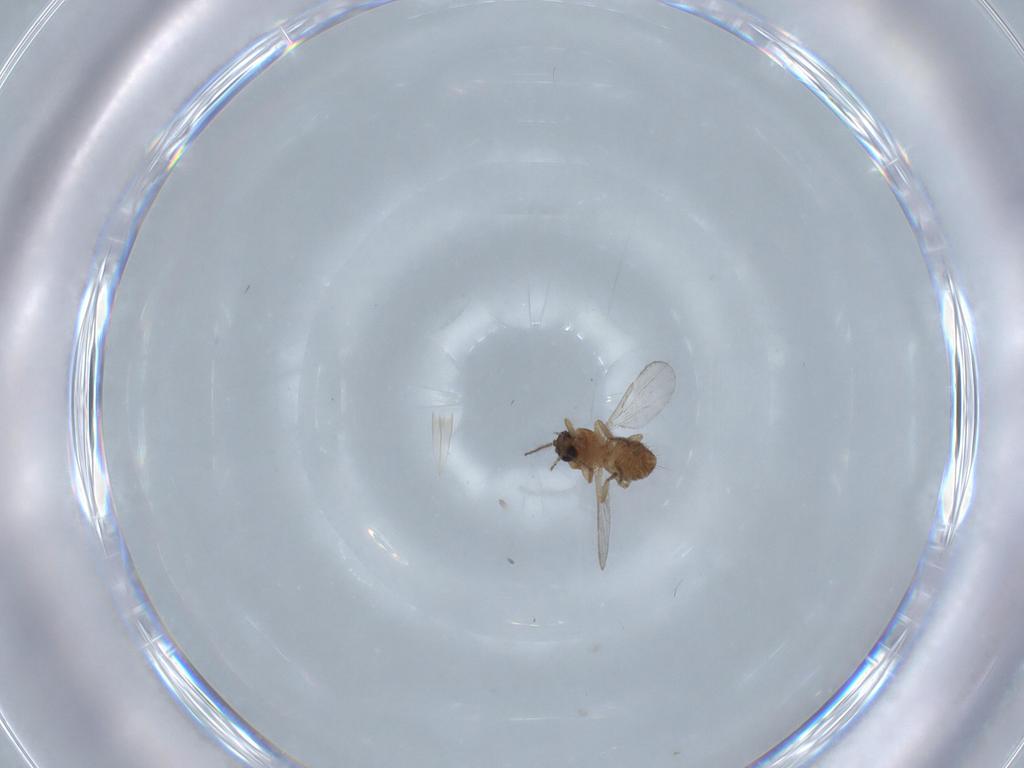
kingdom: Animalia
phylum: Arthropoda
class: Insecta
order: Diptera
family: Ceratopogonidae
